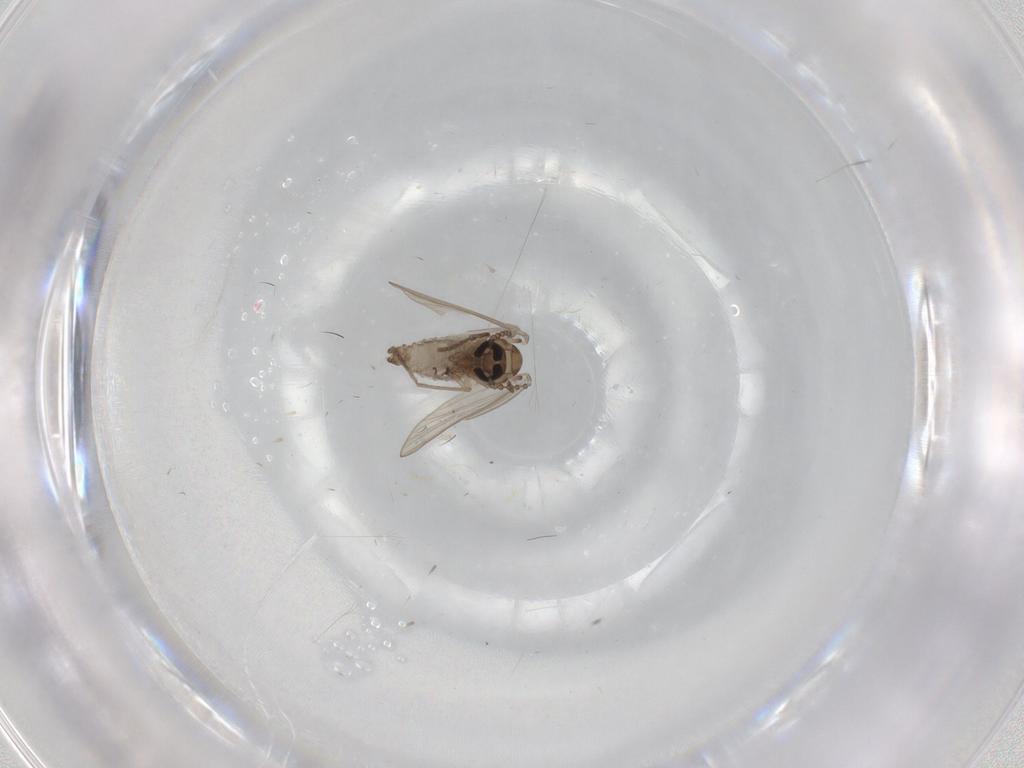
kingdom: Animalia
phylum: Arthropoda
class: Insecta
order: Diptera
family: Psychodidae
